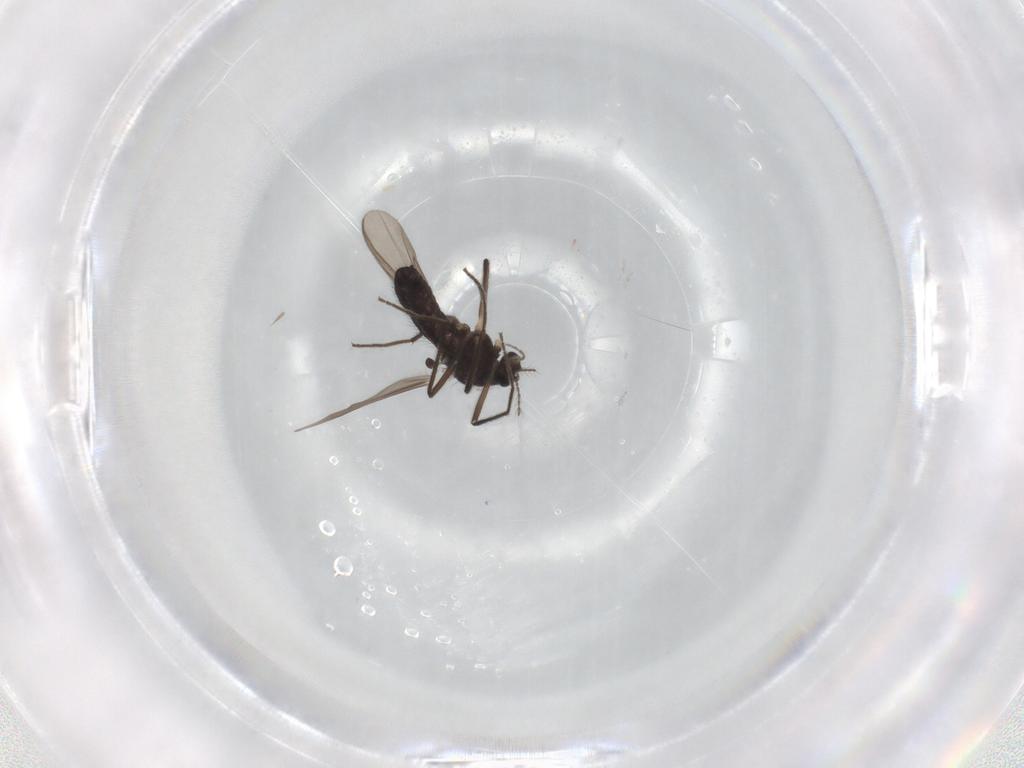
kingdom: Animalia
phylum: Arthropoda
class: Insecta
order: Diptera
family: Chironomidae
